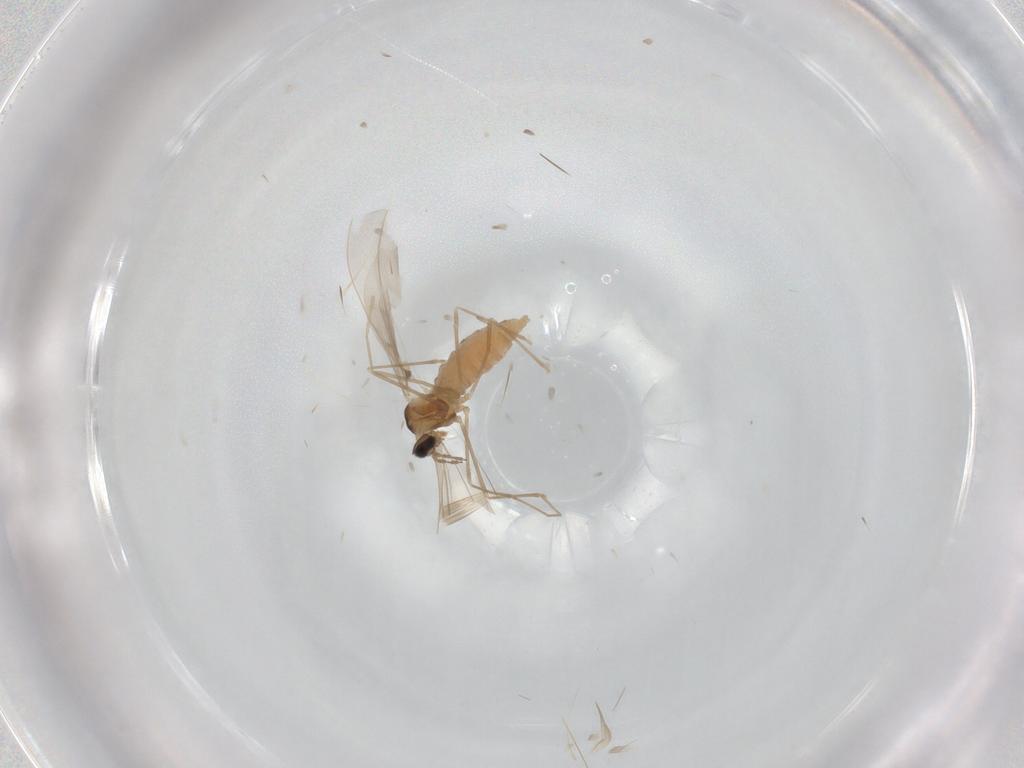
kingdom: Animalia
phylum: Arthropoda
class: Insecta
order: Diptera
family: Cecidomyiidae
